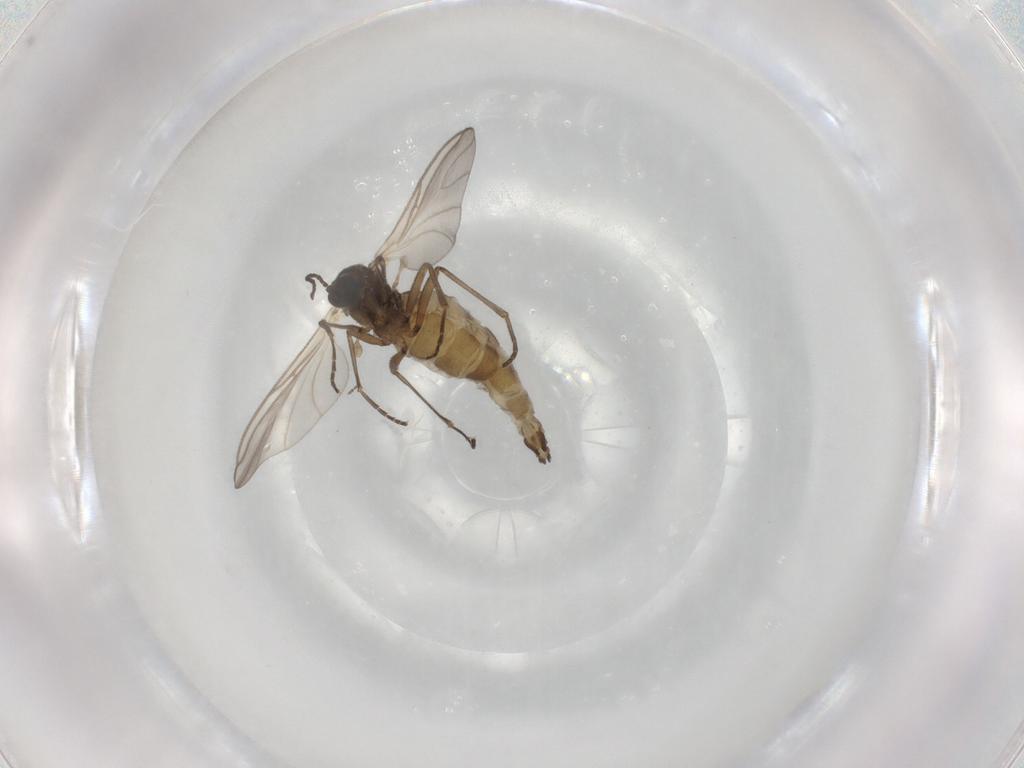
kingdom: Animalia
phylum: Arthropoda
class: Insecta
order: Diptera
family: Sciaridae
